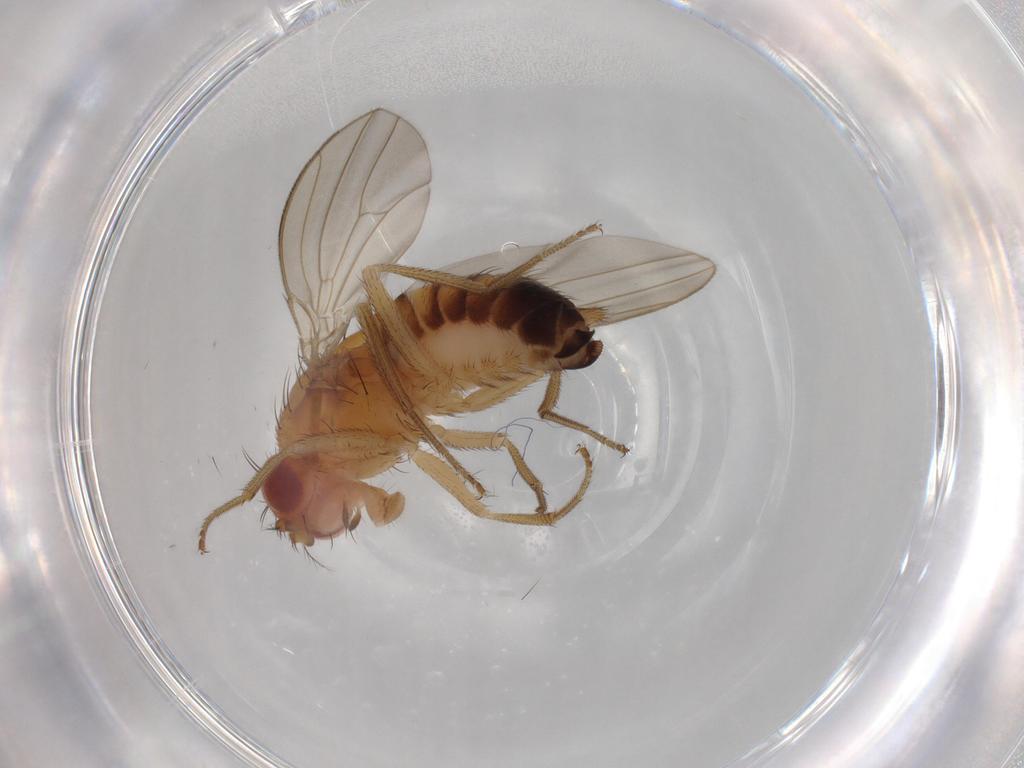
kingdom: Animalia
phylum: Arthropoda
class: Insecta
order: Diptera
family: Drosophilidae
